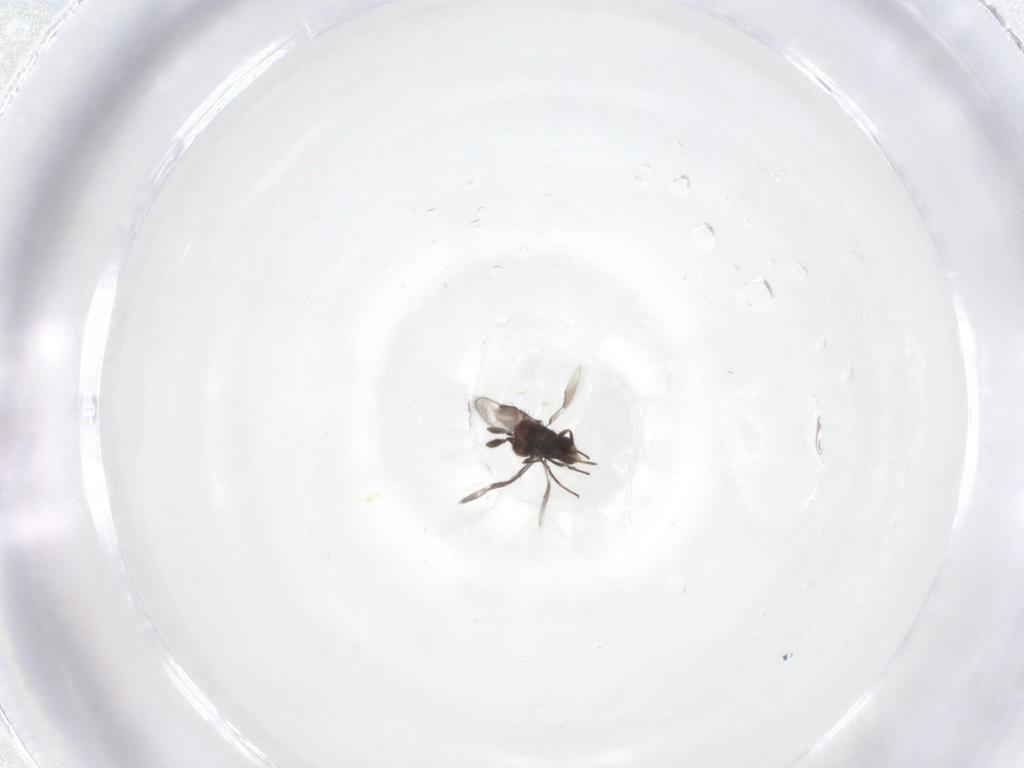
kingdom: Animalia
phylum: Arthropoda
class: Insecta
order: Hymenoptera
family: Eulophidae
